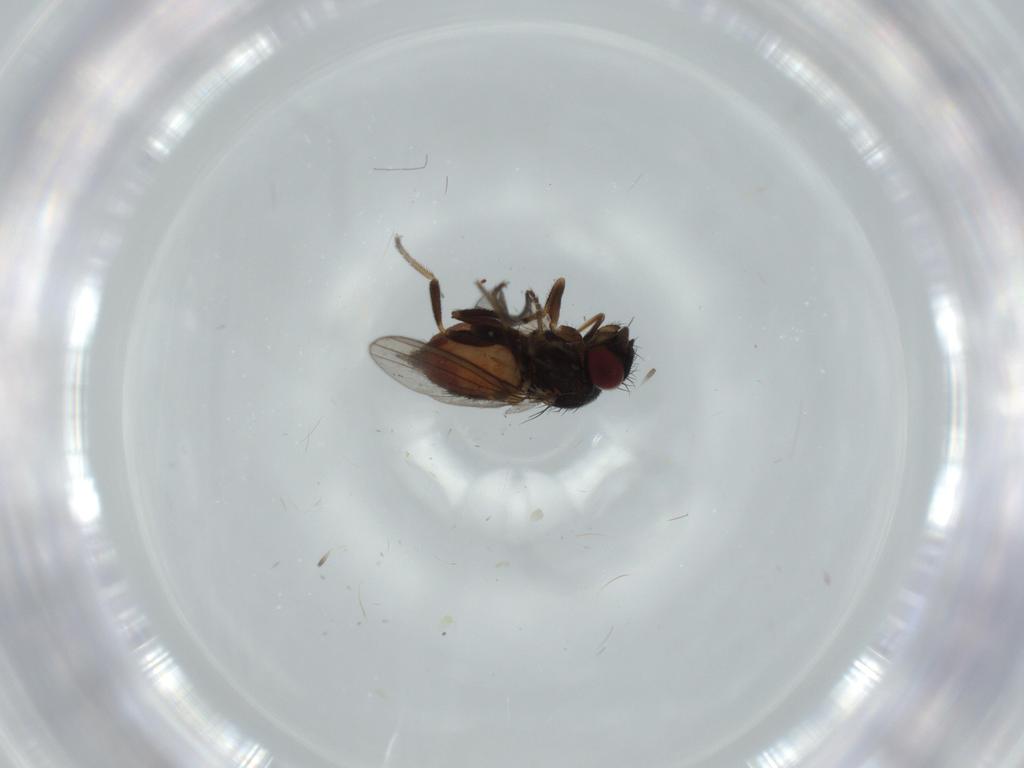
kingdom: Animalia
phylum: Arthropoda
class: Insecta
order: Diptera
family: Milichiidae
